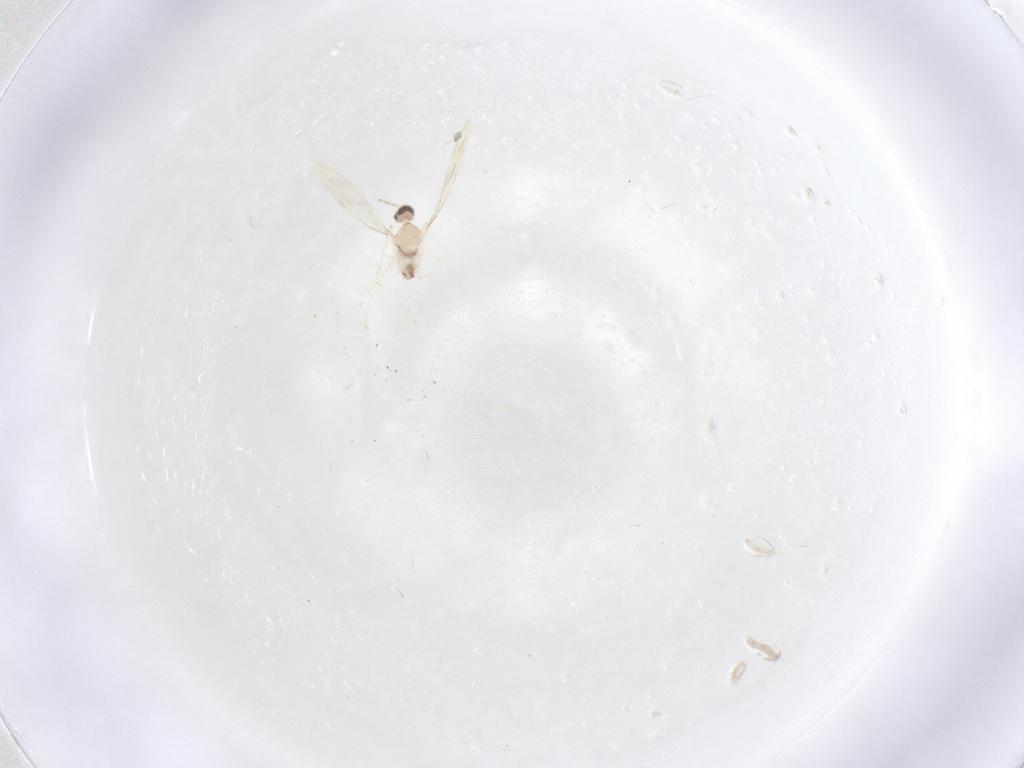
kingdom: Animalia
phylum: Arthropoda
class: Insecta
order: Diptera
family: Cecidomyiidae
